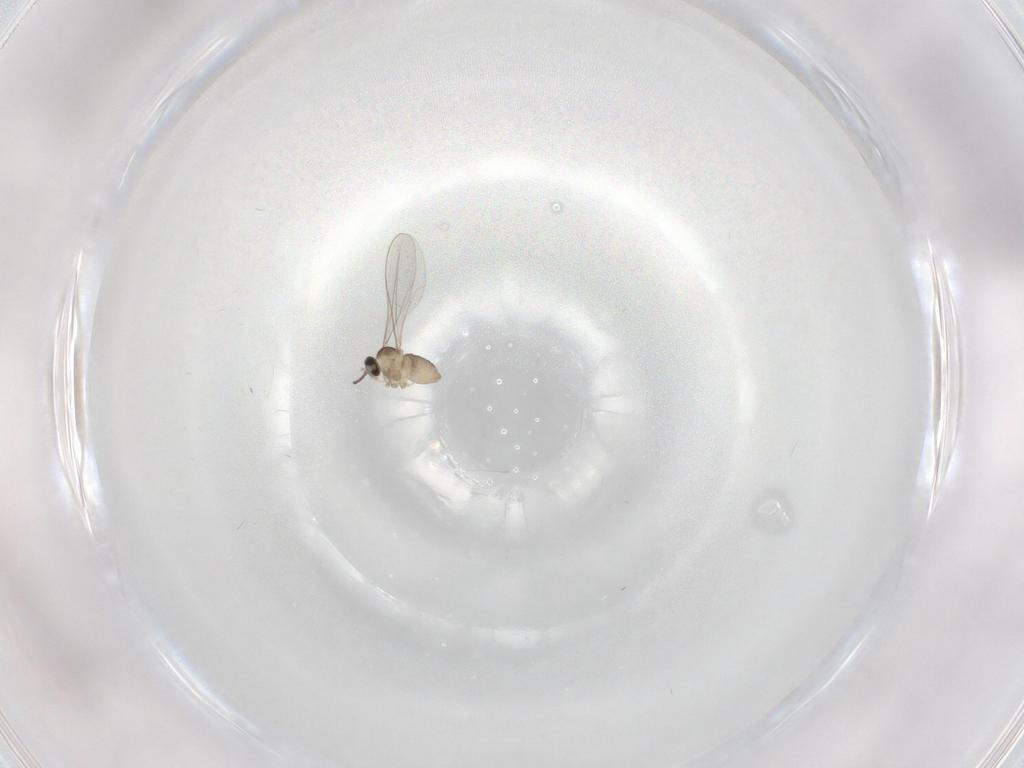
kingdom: Animalia
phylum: Arthropoda
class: Insecta
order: Diptera
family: Cecidomyiidae
